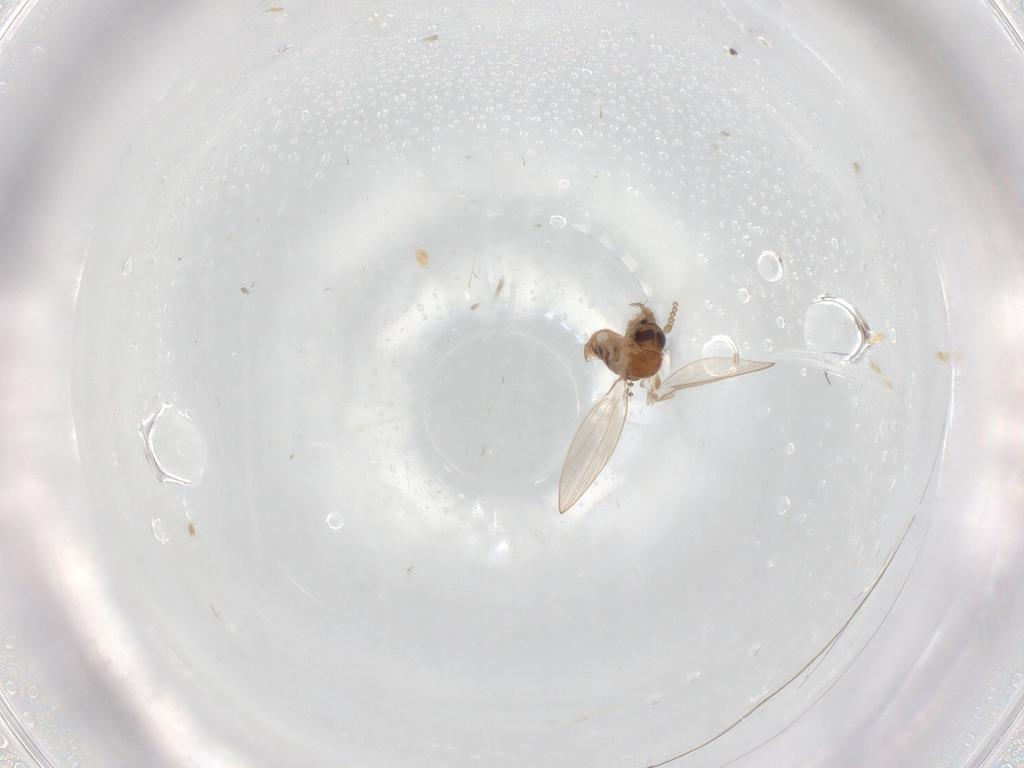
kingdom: Animalia
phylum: Arthropoda
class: Insecta
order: Diptera
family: Psychodidae
